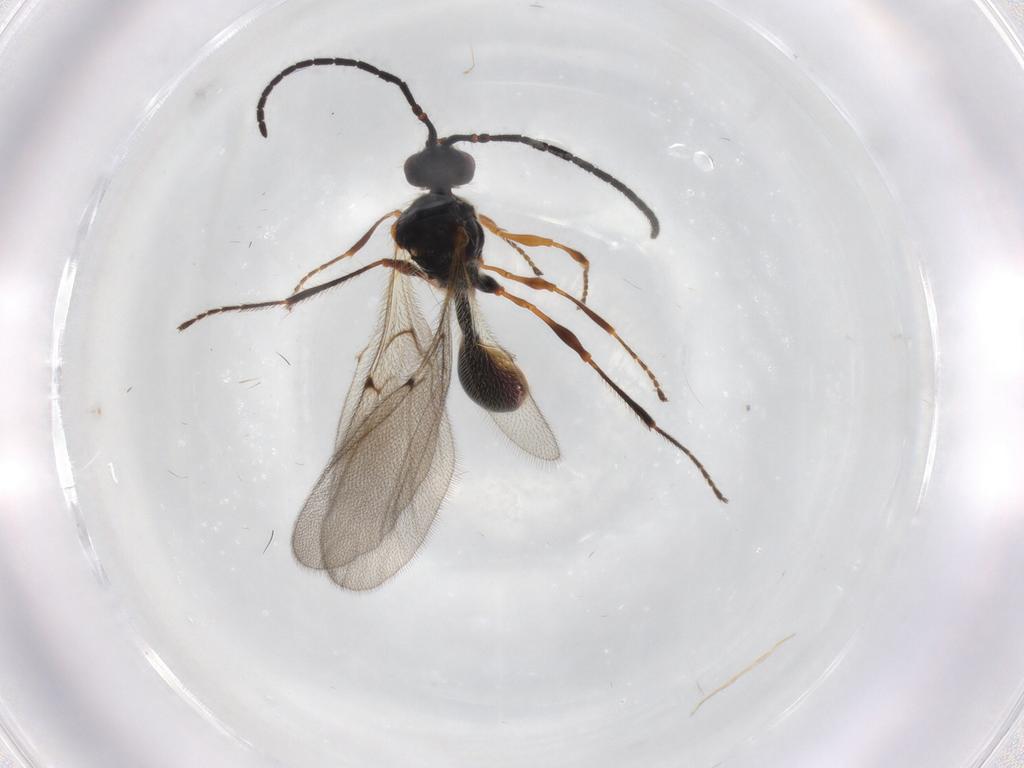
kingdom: Animalia
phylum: Arthropoda
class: Insecta
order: Hymenoptera
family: Diapriidae
